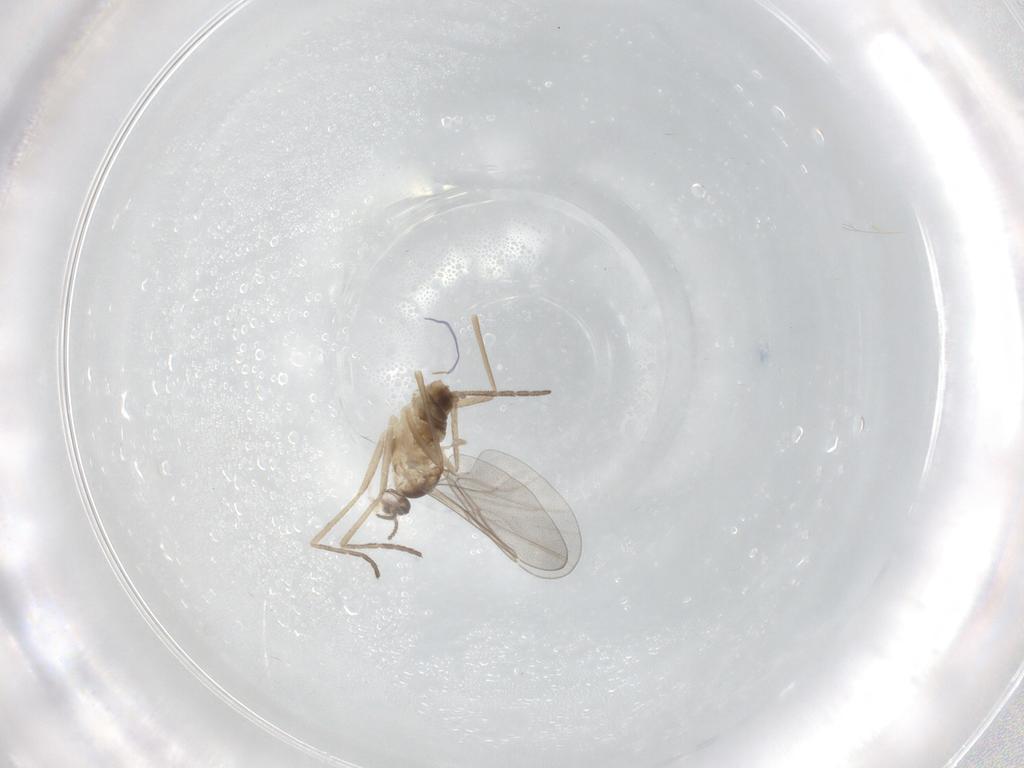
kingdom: Animalia
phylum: Arthropoda
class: Insecta
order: Diptera
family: Cecidomyiidae
